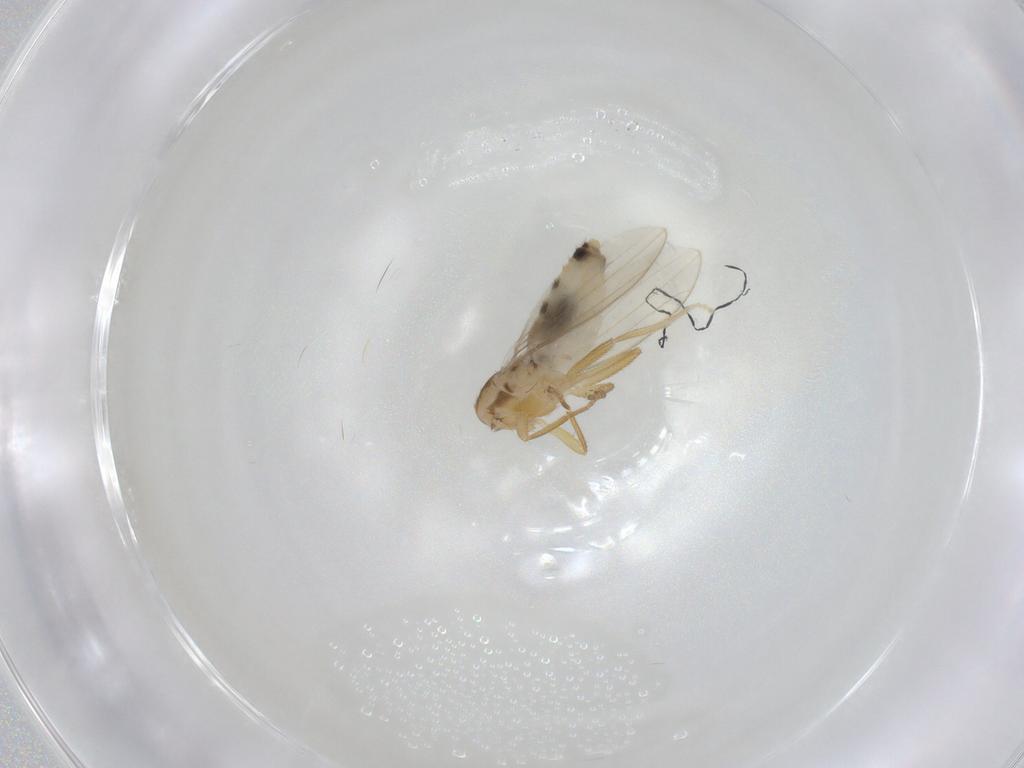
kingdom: Animalia
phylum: Arthropoda
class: Insecta
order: Diptera
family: Periscelididae
